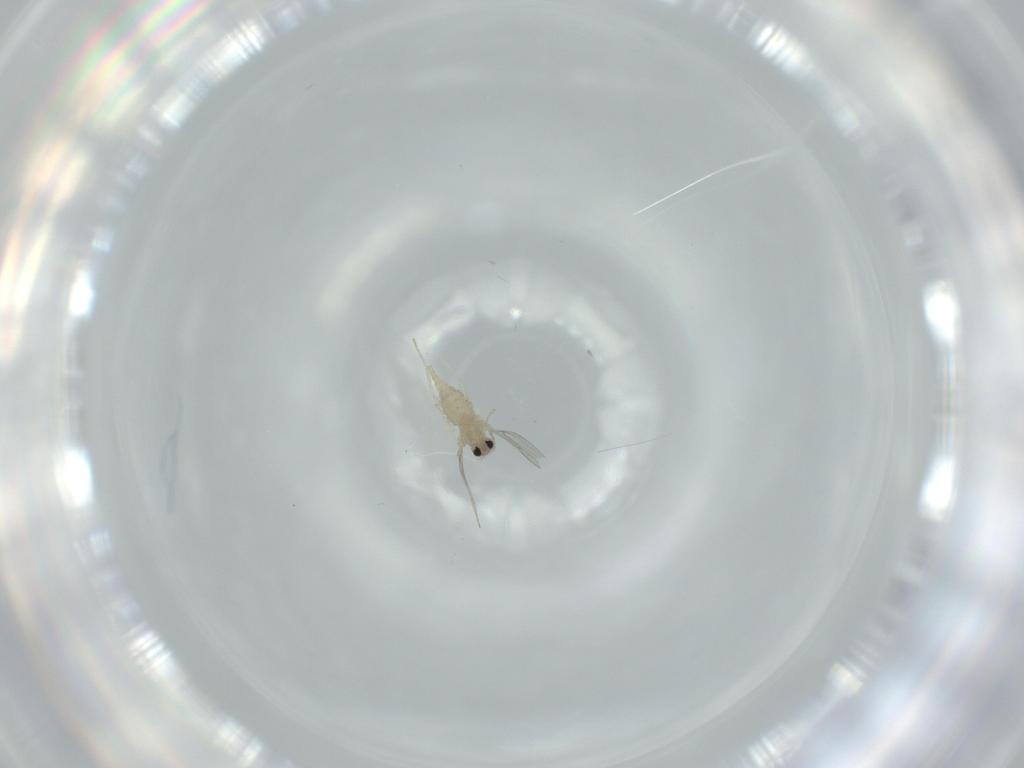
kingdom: Animalia
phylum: Arthropoda
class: Insecta
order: Diptera
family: Cecidomyiidae
